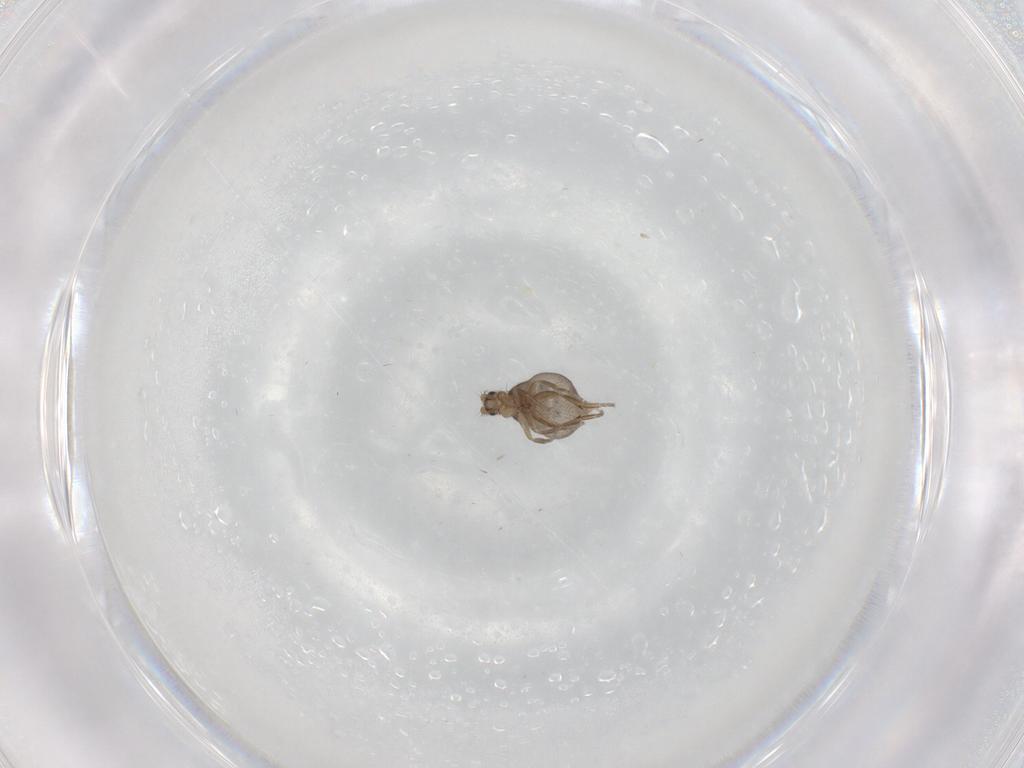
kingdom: Animalia
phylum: Arthropoda
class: Insecta
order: Diptera
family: Phoridae
